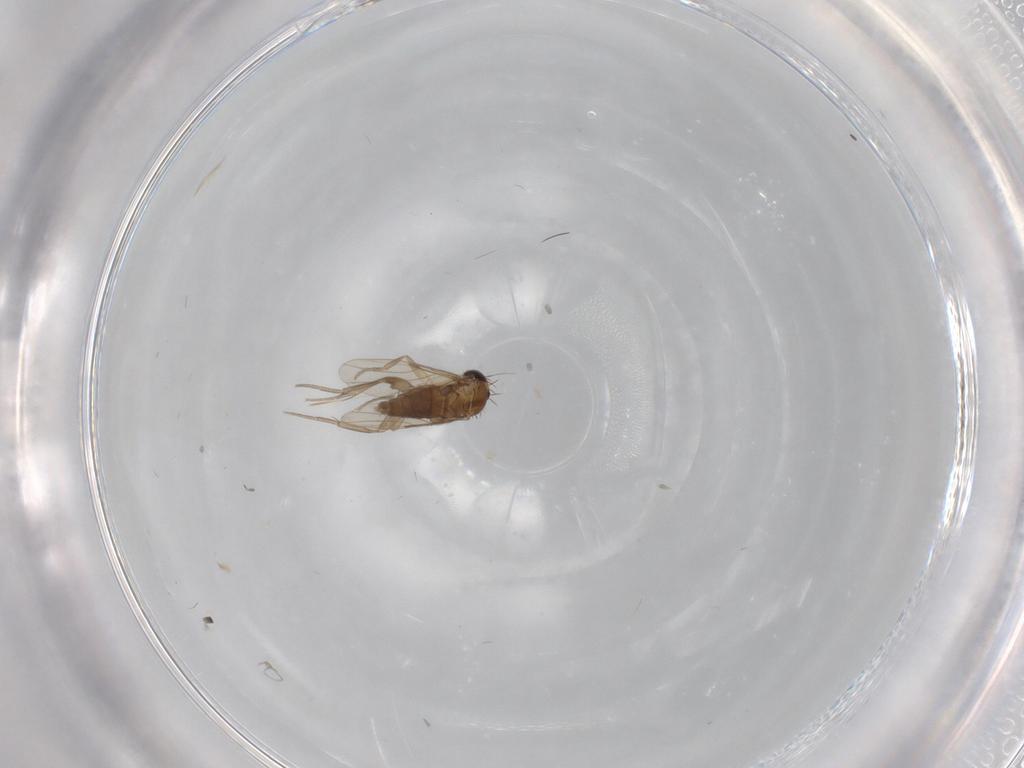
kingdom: Animalia
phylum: Arthropoda
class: Insecta
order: Diptera
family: Phoridae
